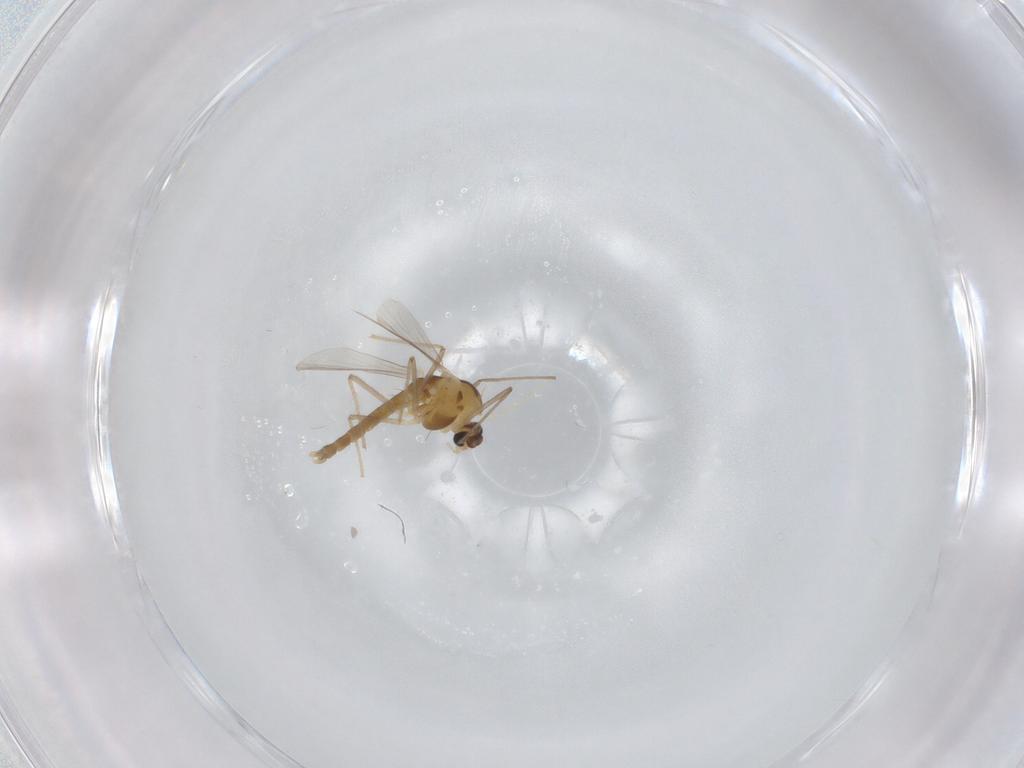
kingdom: Animalia
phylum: Arthropoda
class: Insecta
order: Diptera
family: Chironomidae
